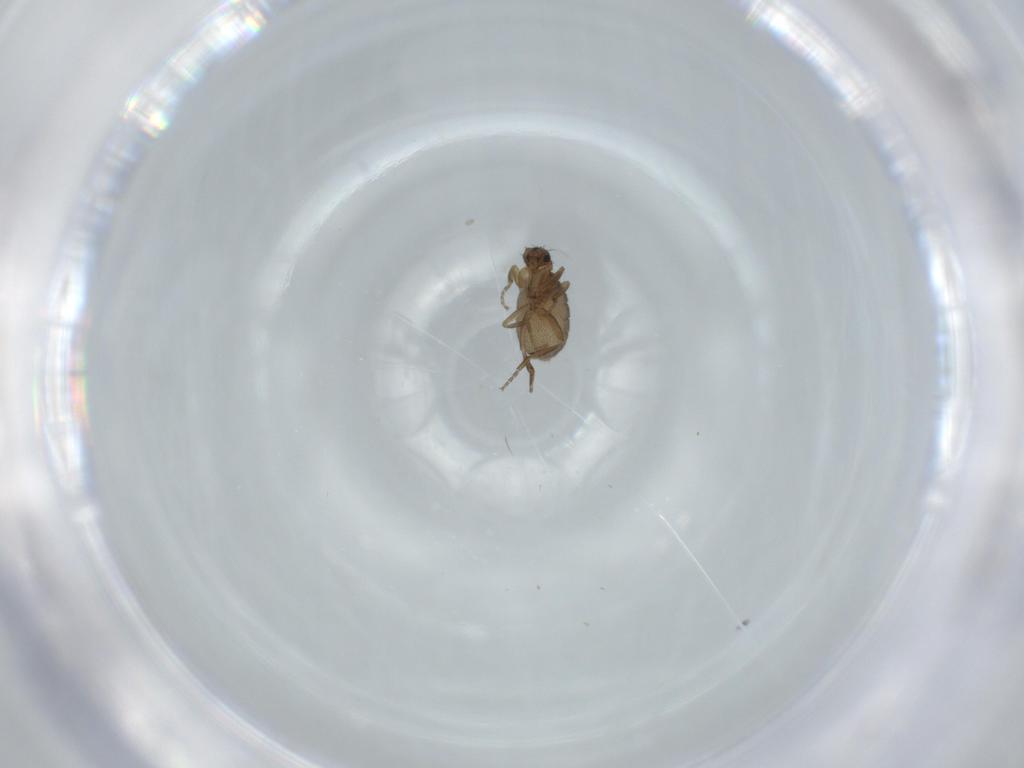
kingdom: Animalia
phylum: Arthropoda
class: Insecta
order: Diptera
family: Phoridae
